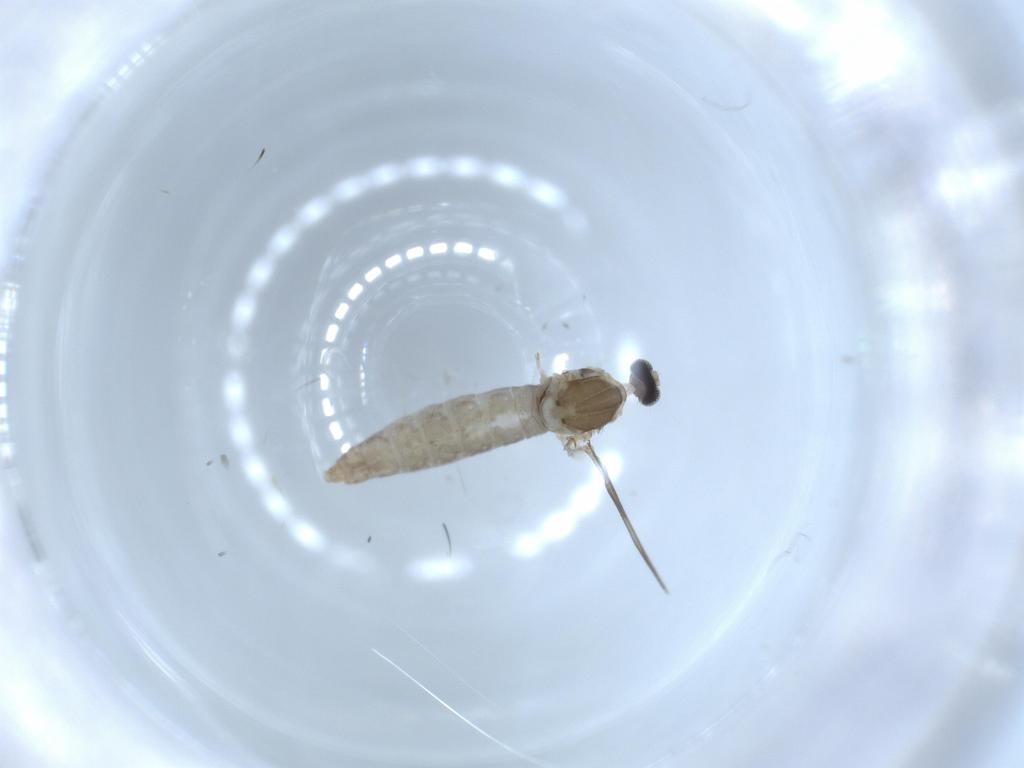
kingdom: Animalia
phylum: Arthropoda
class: Insecta
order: Diptera
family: Cecidomyiidae
